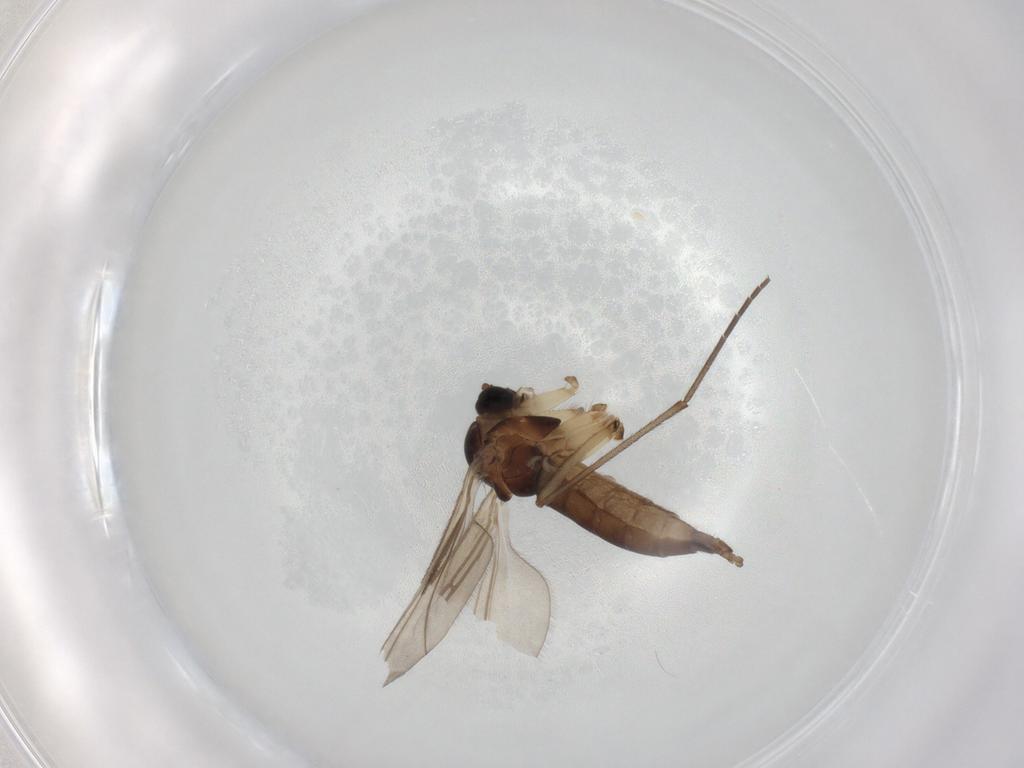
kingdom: Animalia
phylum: Arthropoda
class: Insecta
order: Diptera
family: Sciaridae
